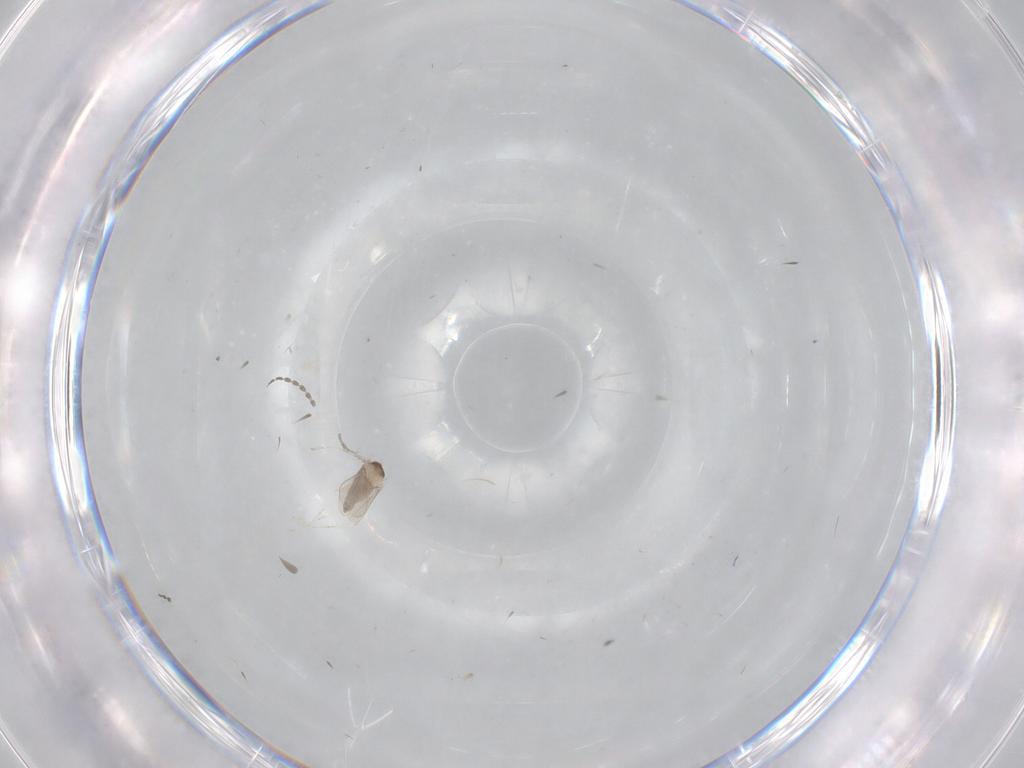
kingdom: Animalia
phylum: Arthropoda
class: Insecta
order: Diptera
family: Cecidomyiidae
